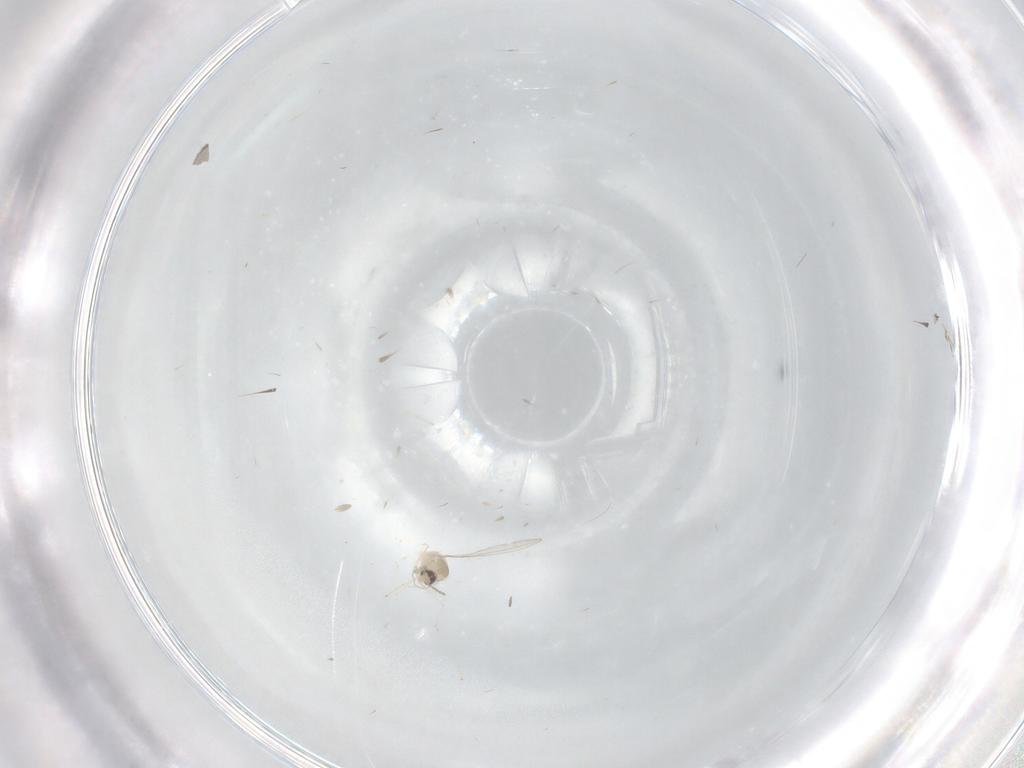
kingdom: Animalia
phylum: Arthropoda
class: Insecta
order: Diptera
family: Cecidomyiidae
